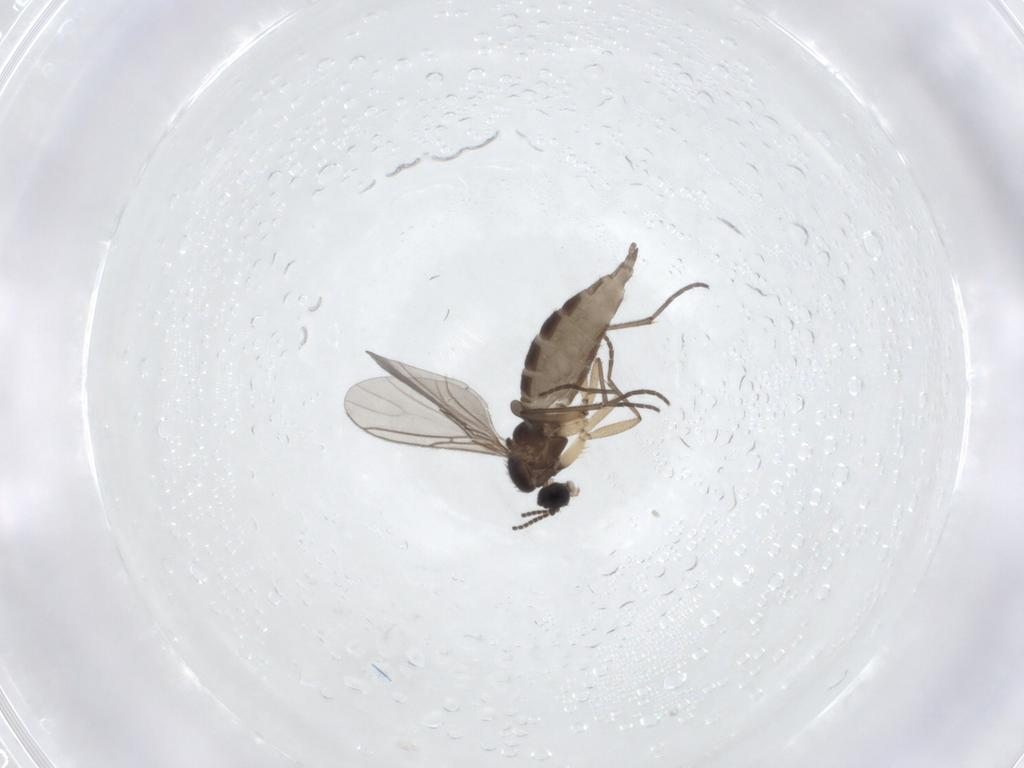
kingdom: Animalia
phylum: Arthropoda
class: Insecta
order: Diptera
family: Sciaridae
